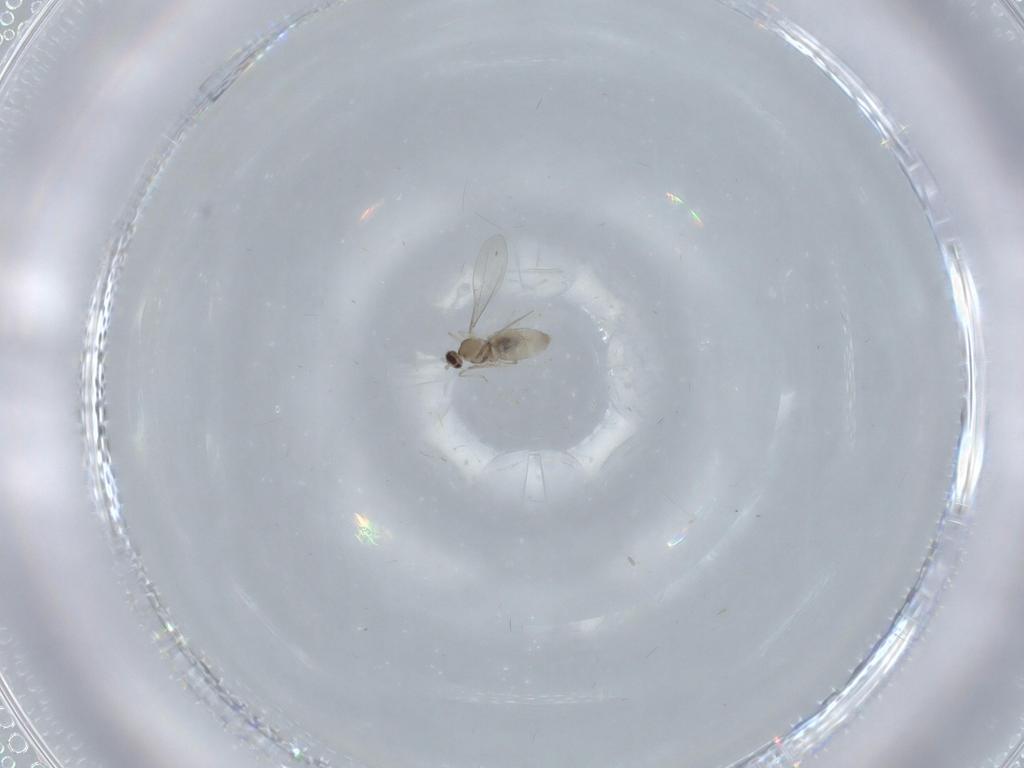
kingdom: Animalia
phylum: Arthropoda
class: Insecta
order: Diptera
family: Cecidomyiidae
